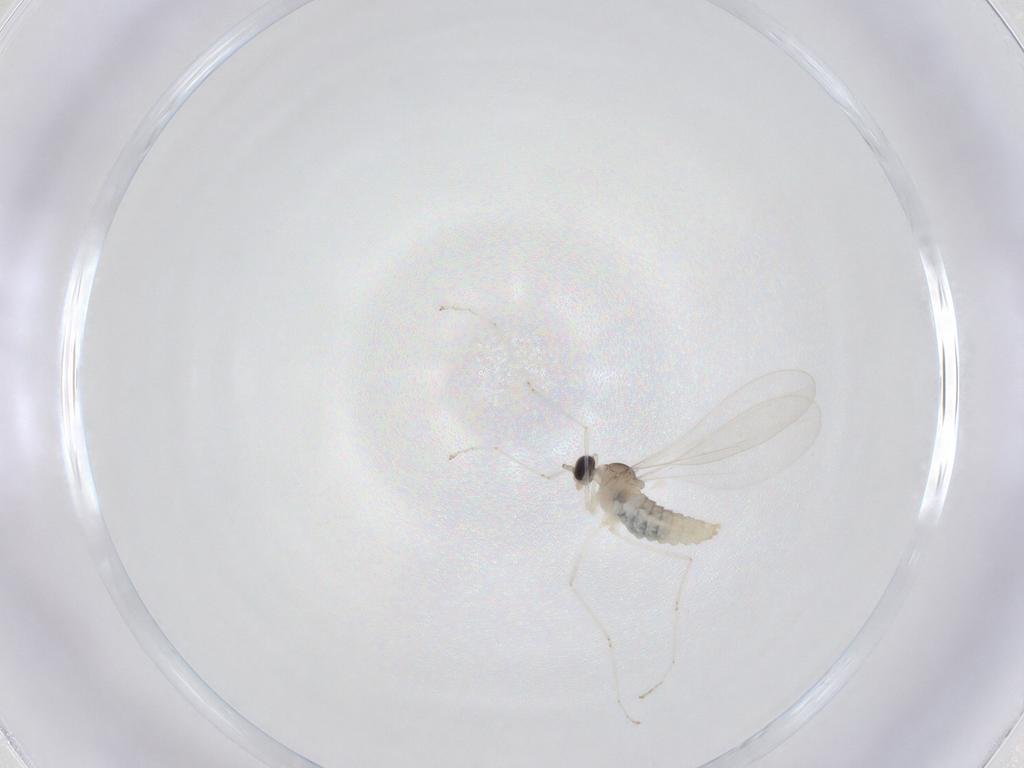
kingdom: Animalia
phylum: Arthropoda
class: Insecta
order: Diptera
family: Cecidomyiidae
